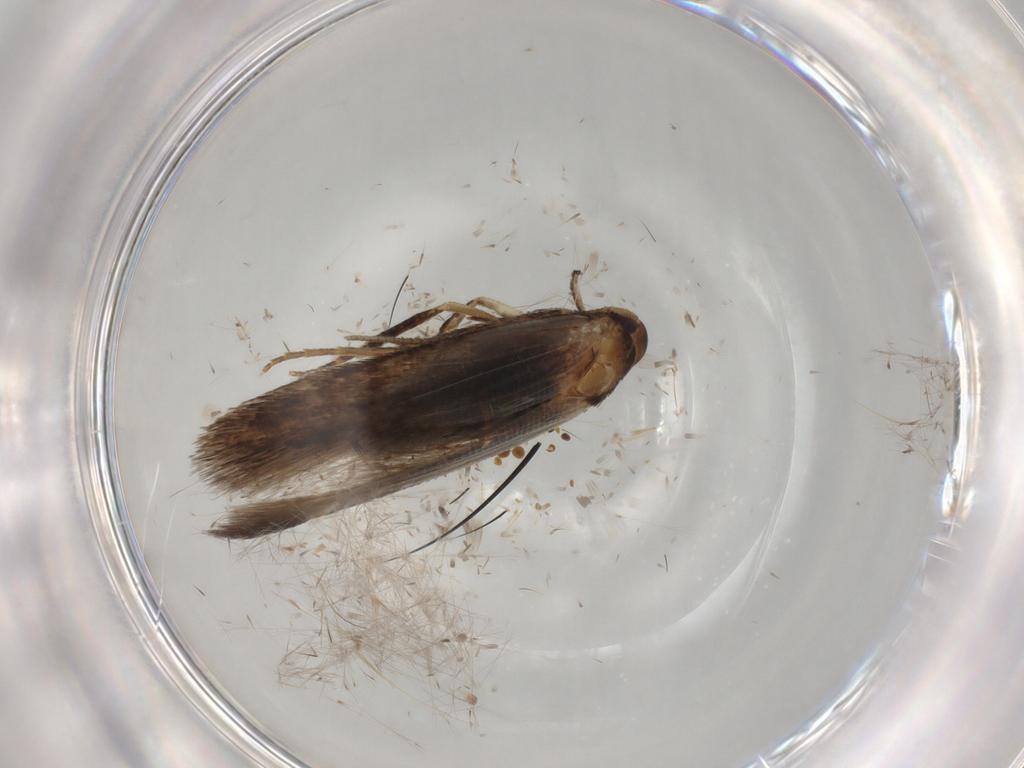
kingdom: Animalia
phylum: Arthropoda
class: Insecta
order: Lepidoptera
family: Gelechiidae
